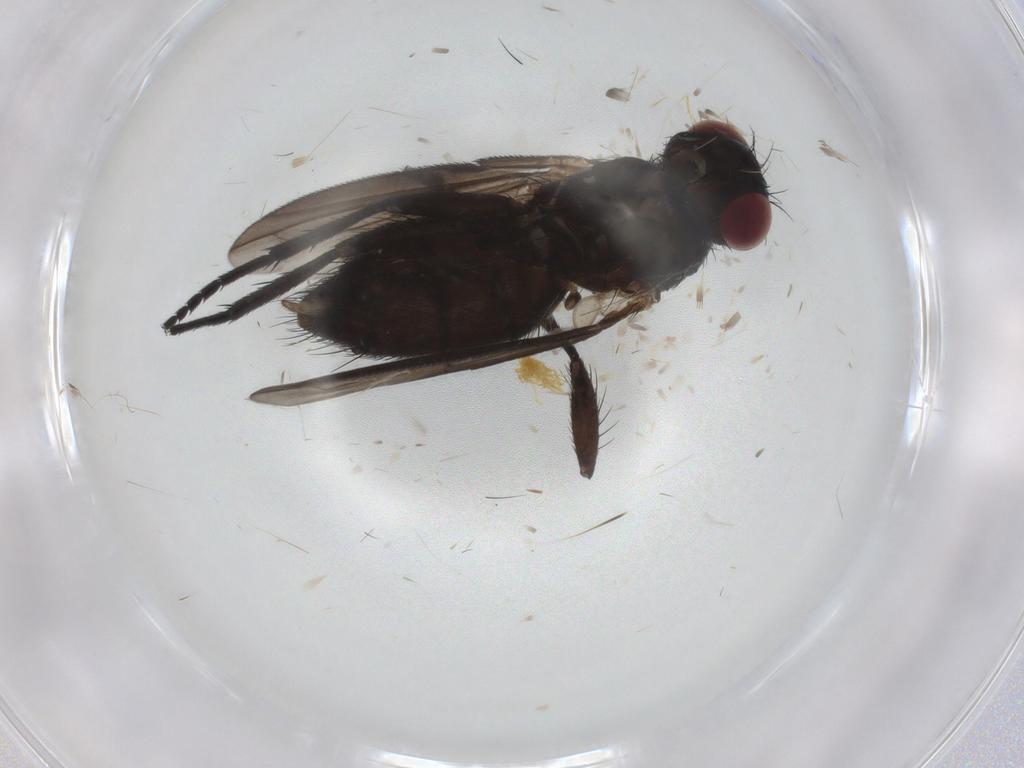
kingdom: Animalia
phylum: Arthropoda
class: Insecta
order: Diptera
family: Tachinidae
